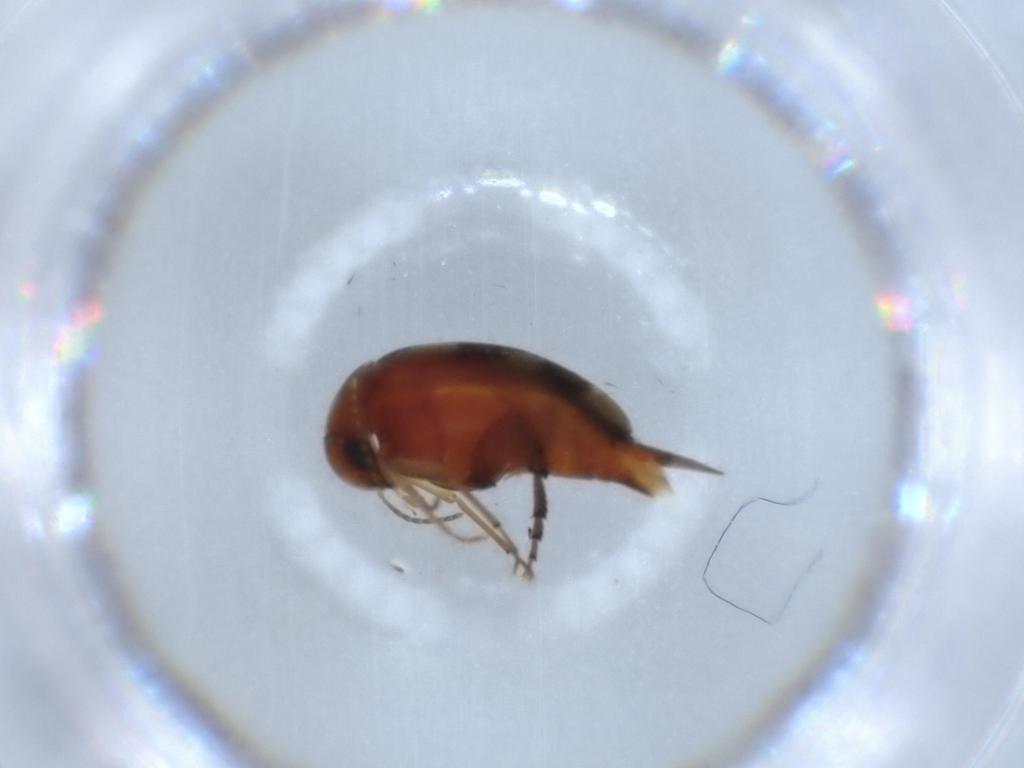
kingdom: Animalia
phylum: Arthropoda
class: Insecta
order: Coleoptera
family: Mordellidae
